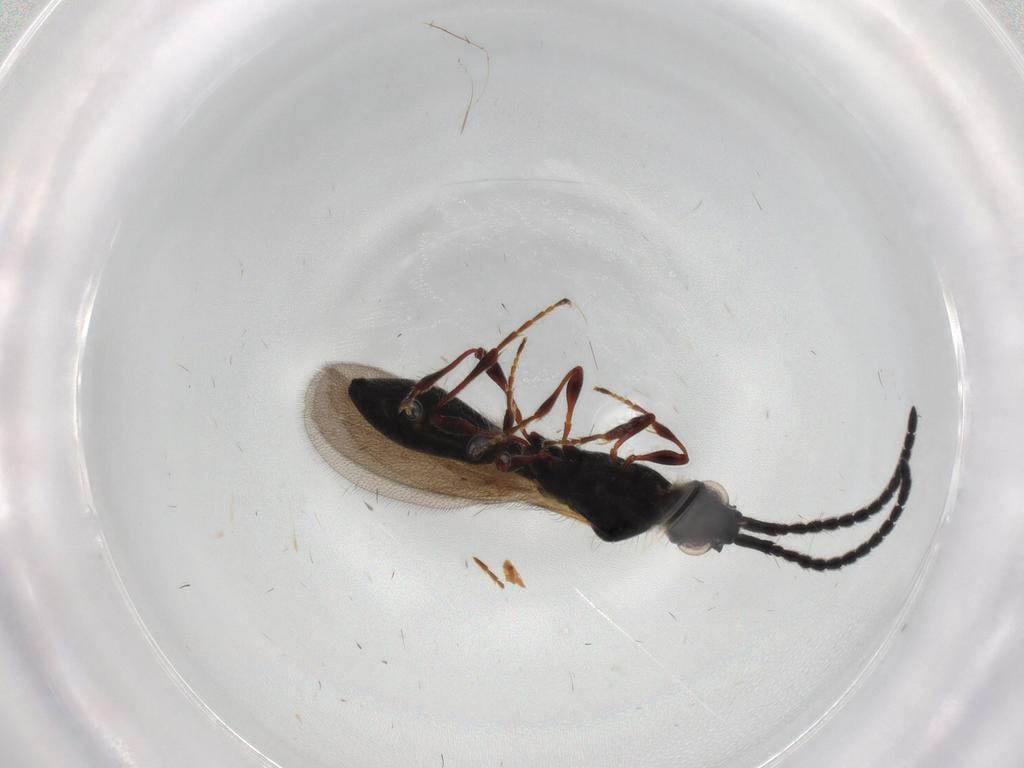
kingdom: Animalia
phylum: Arthropoda
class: Insecta
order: Hymenoptera
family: Diapriidae
